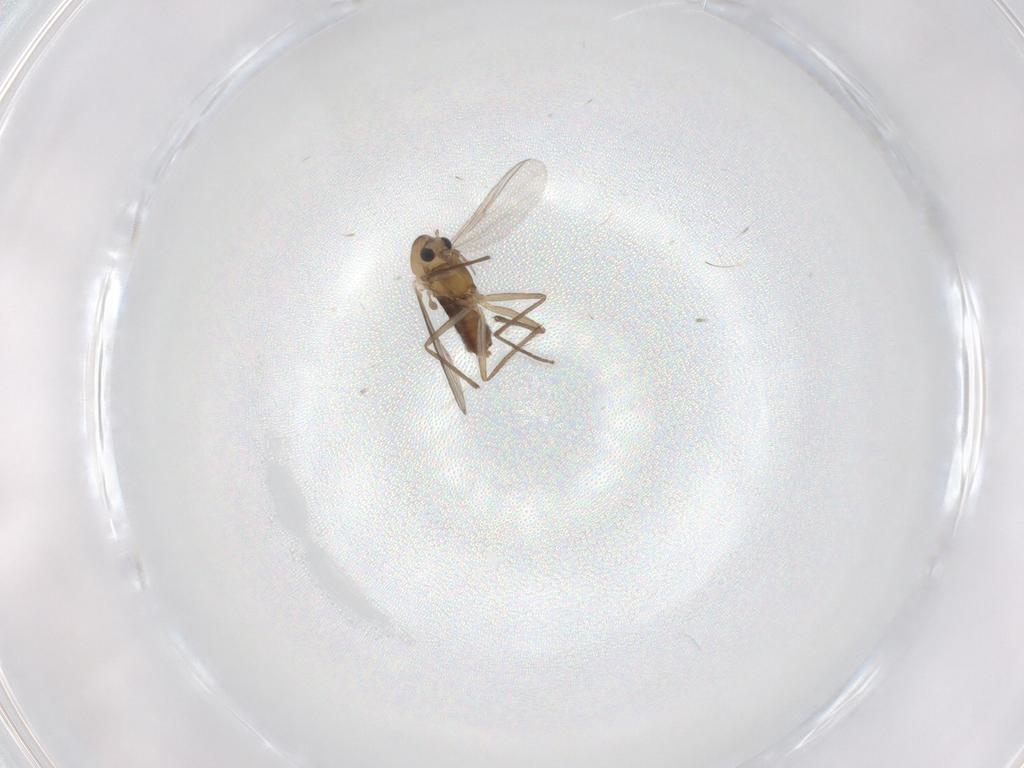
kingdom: Animalia
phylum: Arthropoda
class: Insecta
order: Diptera
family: Chironomidae
